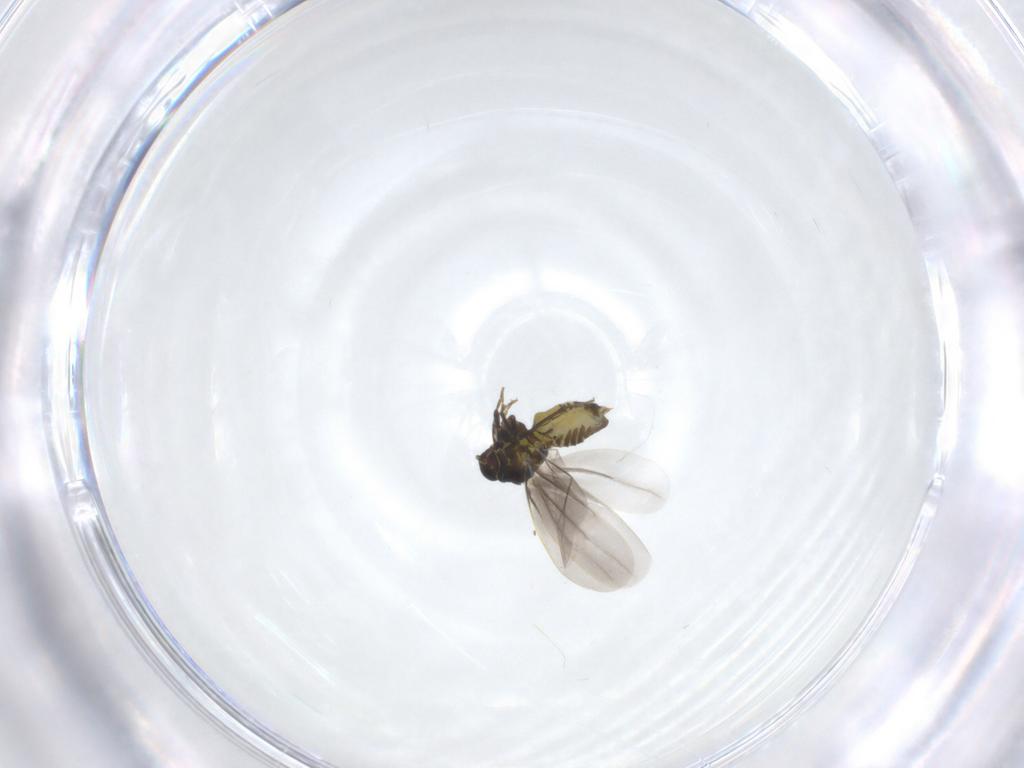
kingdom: Animalia
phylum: Arthropoda
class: Insecta
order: Hemiptera
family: Aleyrodidae
